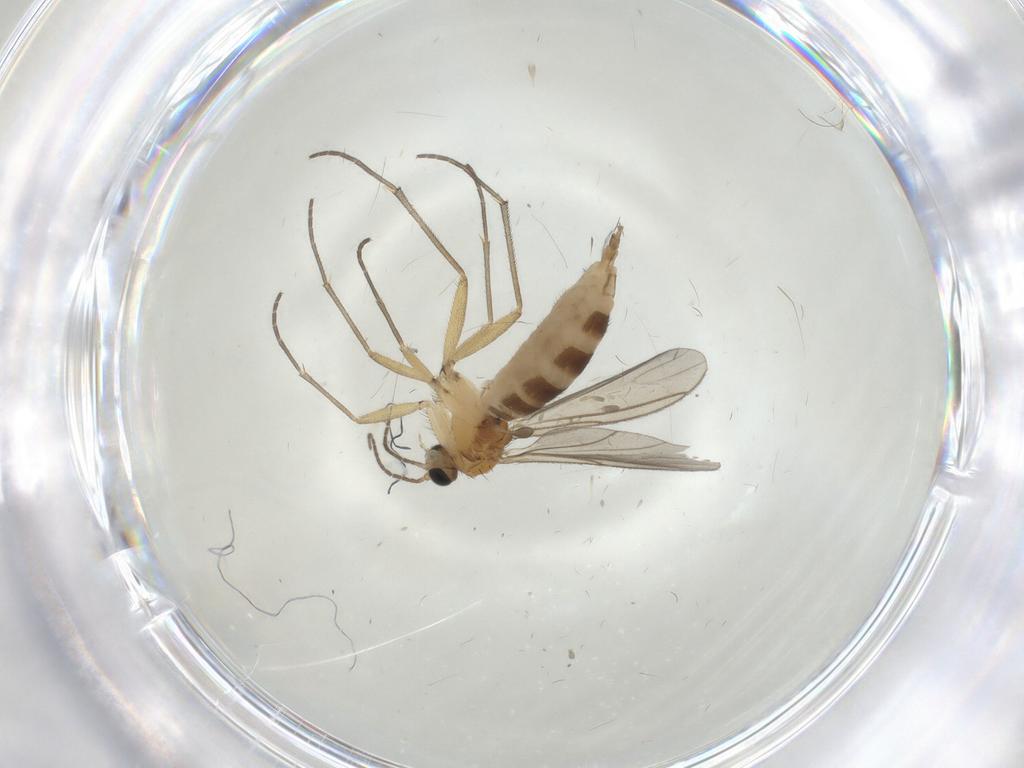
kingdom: Animalia
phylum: Arthropoda
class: Insecta
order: Diptera
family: Sciaridae
